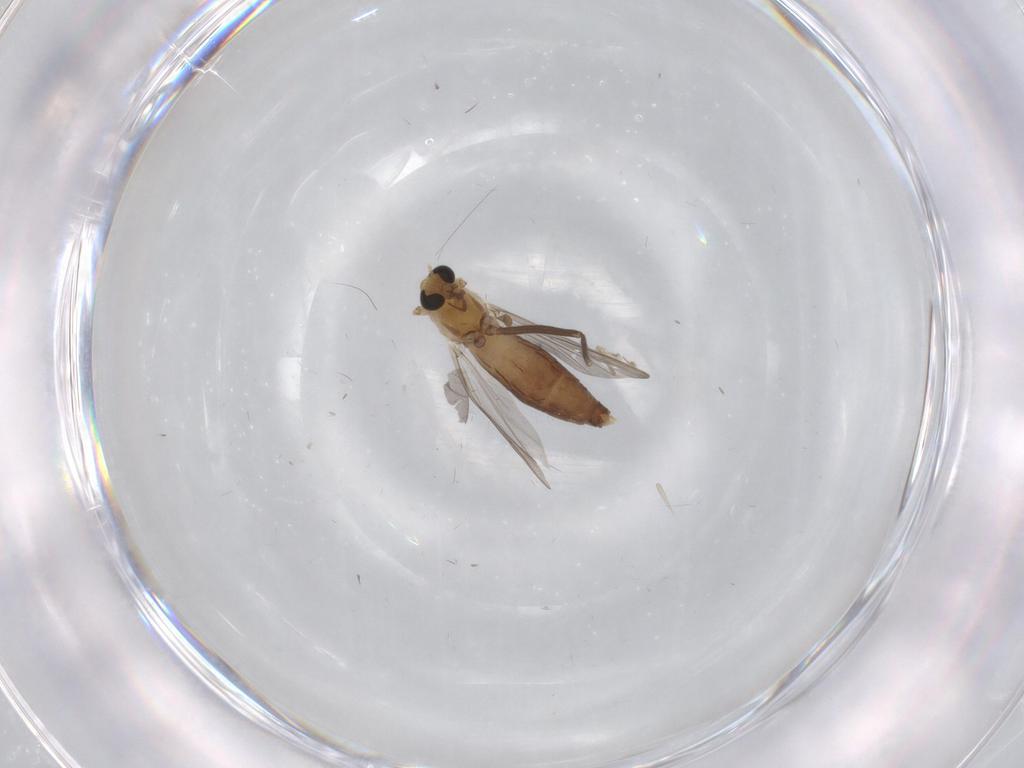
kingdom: Animalia
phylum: Arthropoda
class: Insecta
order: Diptera
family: Chironomidae
